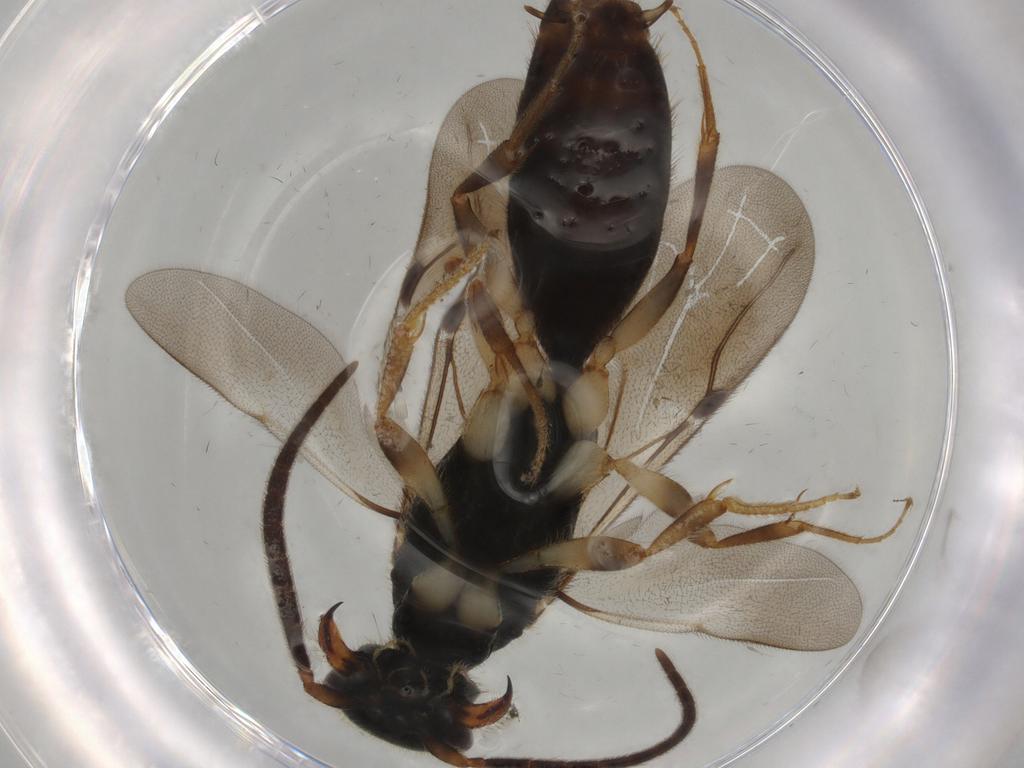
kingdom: Animalia
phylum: Arthropoda
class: Insecta
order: Hymenoptera
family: Bethylidae
